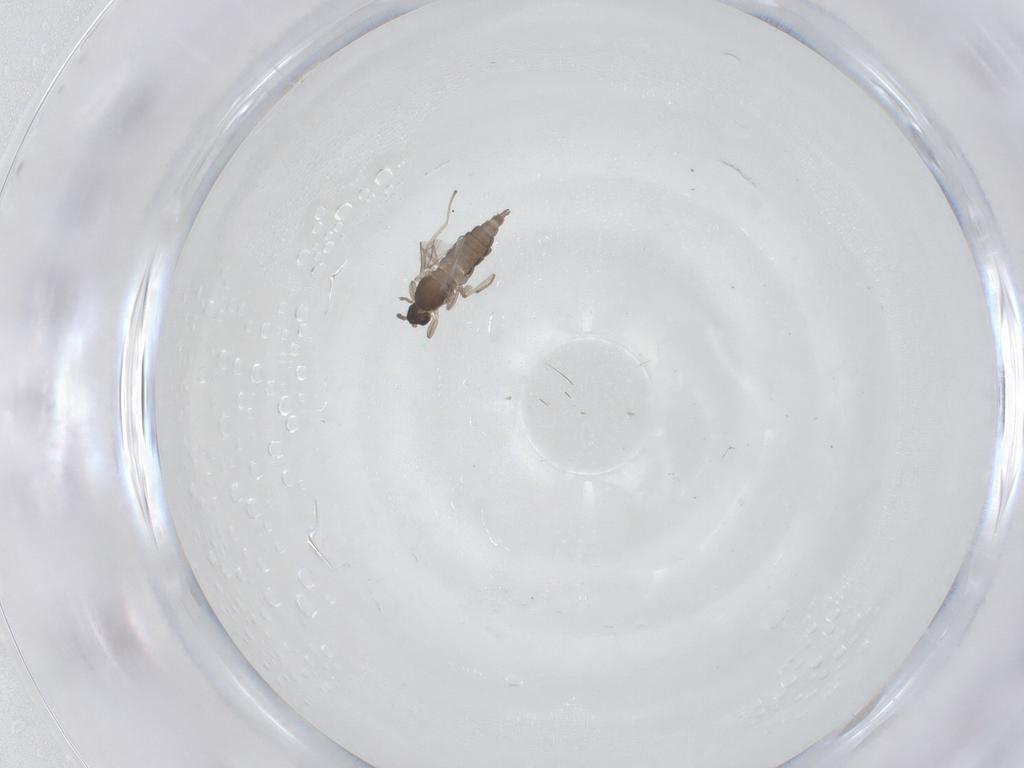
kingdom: Animalia
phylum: Arthropoda
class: Insecta
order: Diptera
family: Cecidomyiidae
